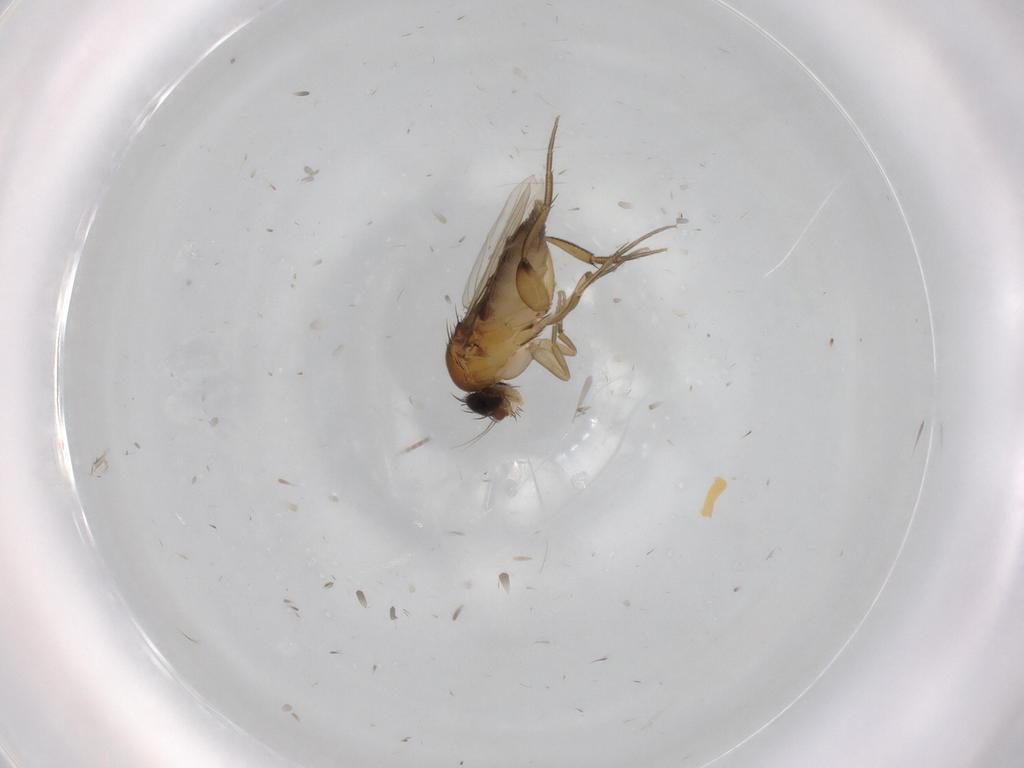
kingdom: Animalia
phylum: Arthropoda
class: Insecta
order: Diptera
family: Phoridae
